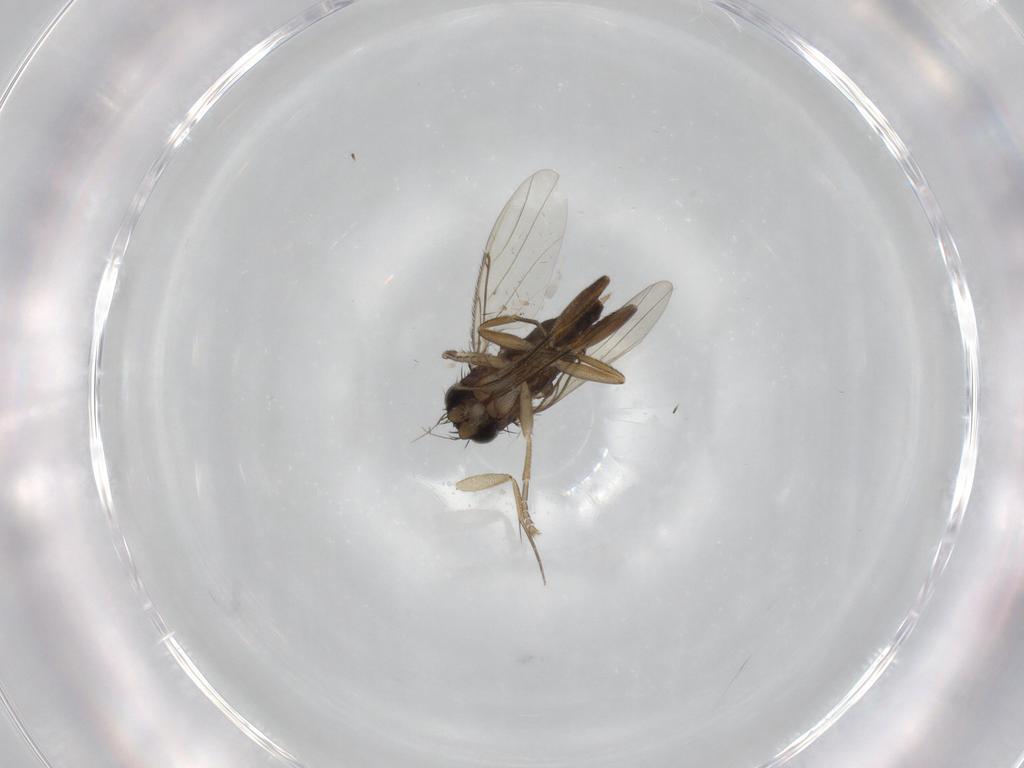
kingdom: Animalia
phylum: Arthropoda
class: Insecta
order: Diptera
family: Phoridae
